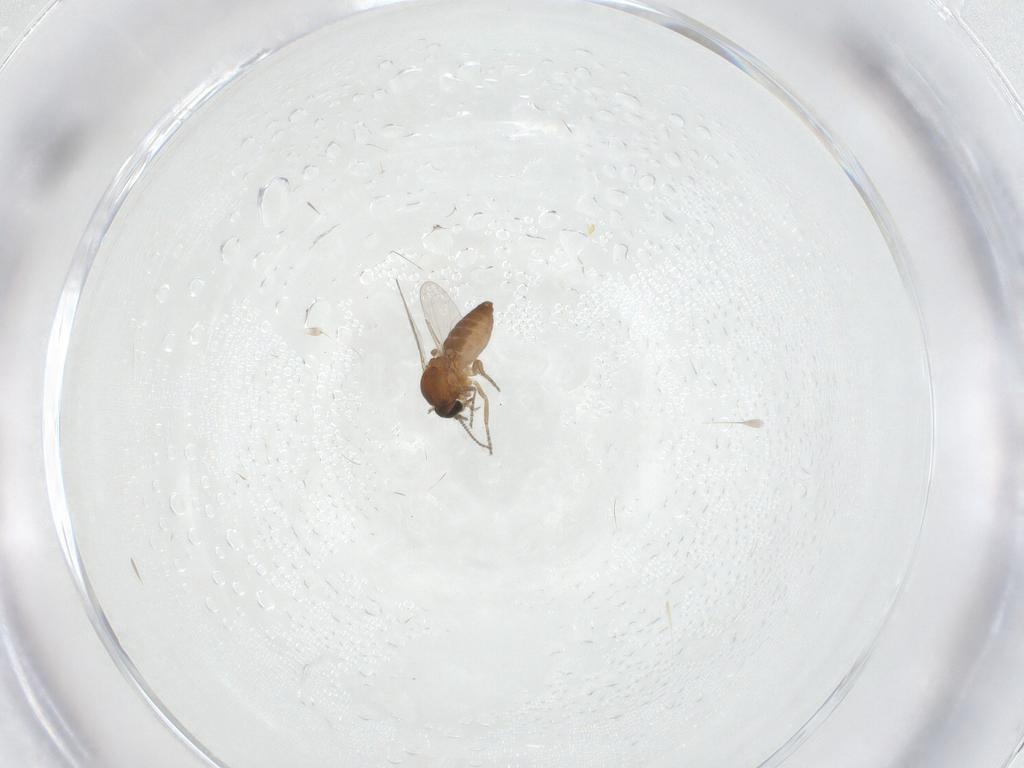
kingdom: Animalia
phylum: Arthropoda
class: Insecta
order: Diptera
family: Ceratopogonidae
